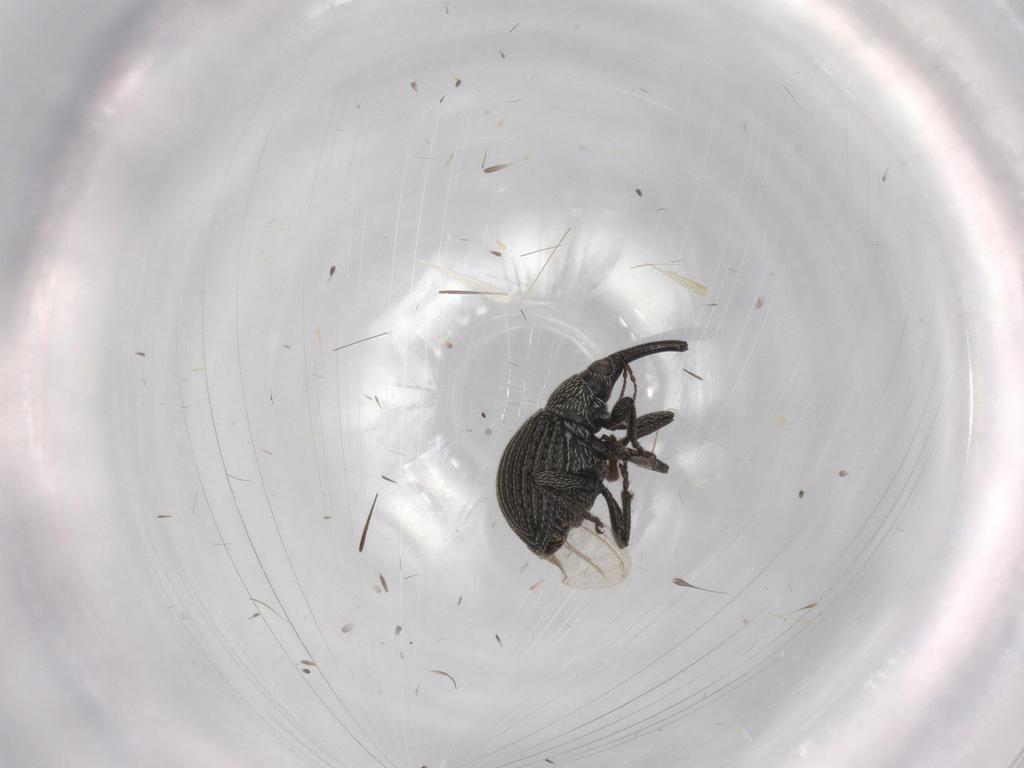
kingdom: Animalia
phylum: Arthropoda
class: Insecta
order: Coleoptera
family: Brentidae
